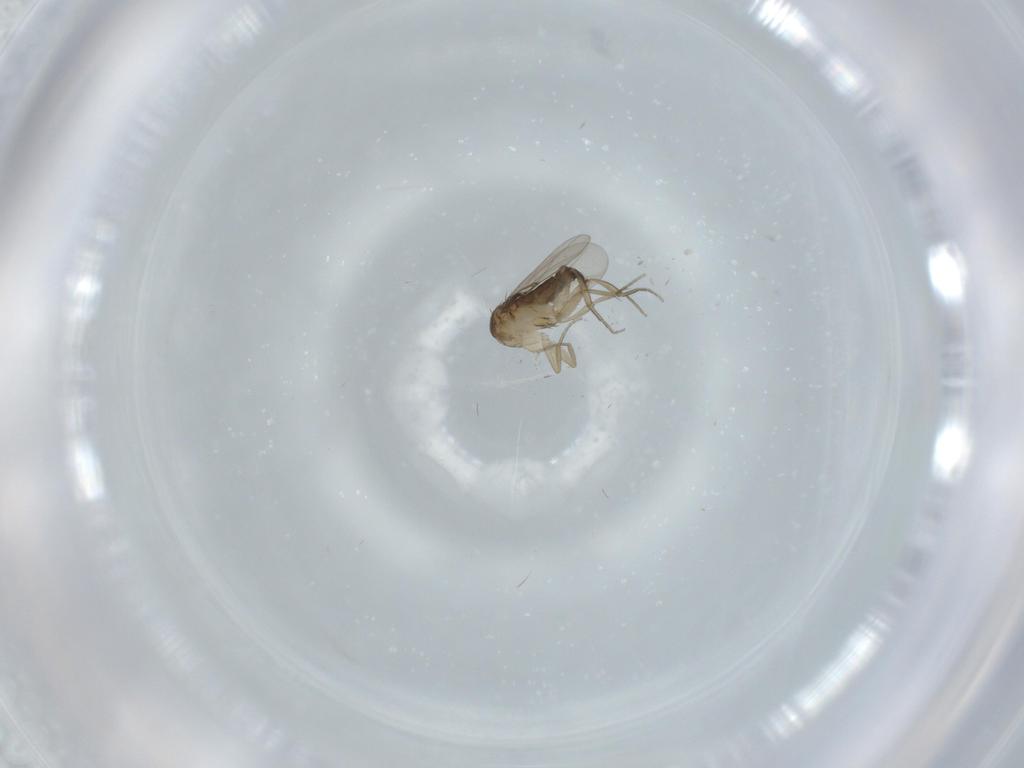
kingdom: Animalia
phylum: Arthropoda
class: Insecta
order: Diptera
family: Phoridae
